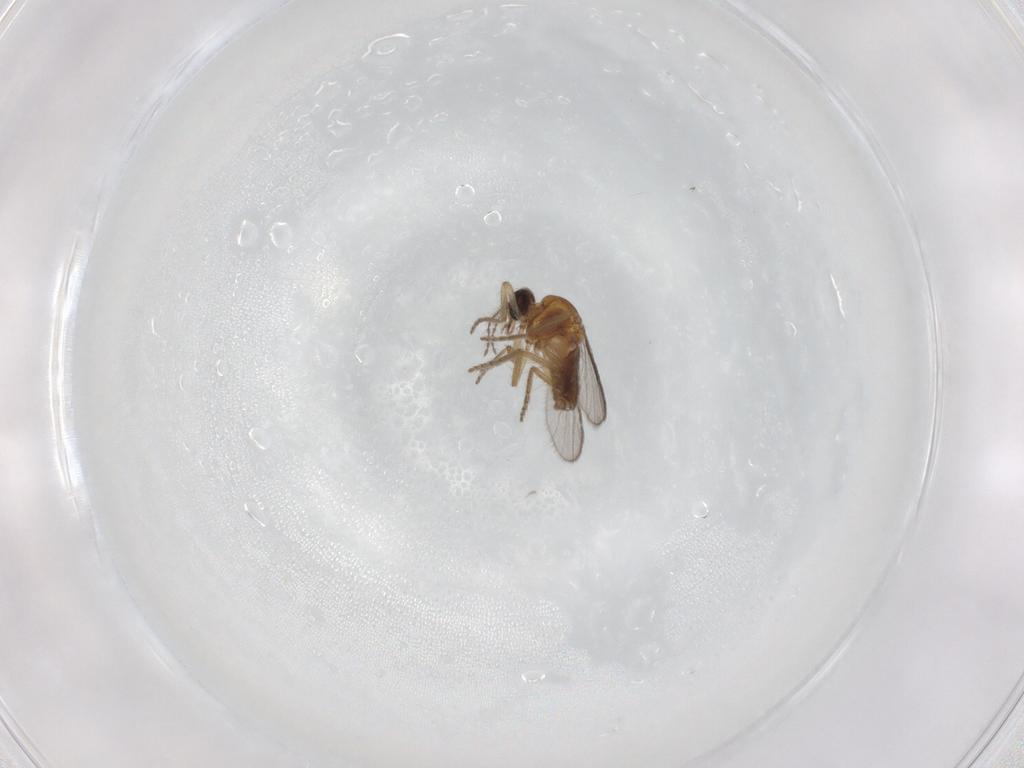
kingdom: Animalia
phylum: Arthropoda
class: Insecta
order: Diptera
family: Ceratopogonidae
